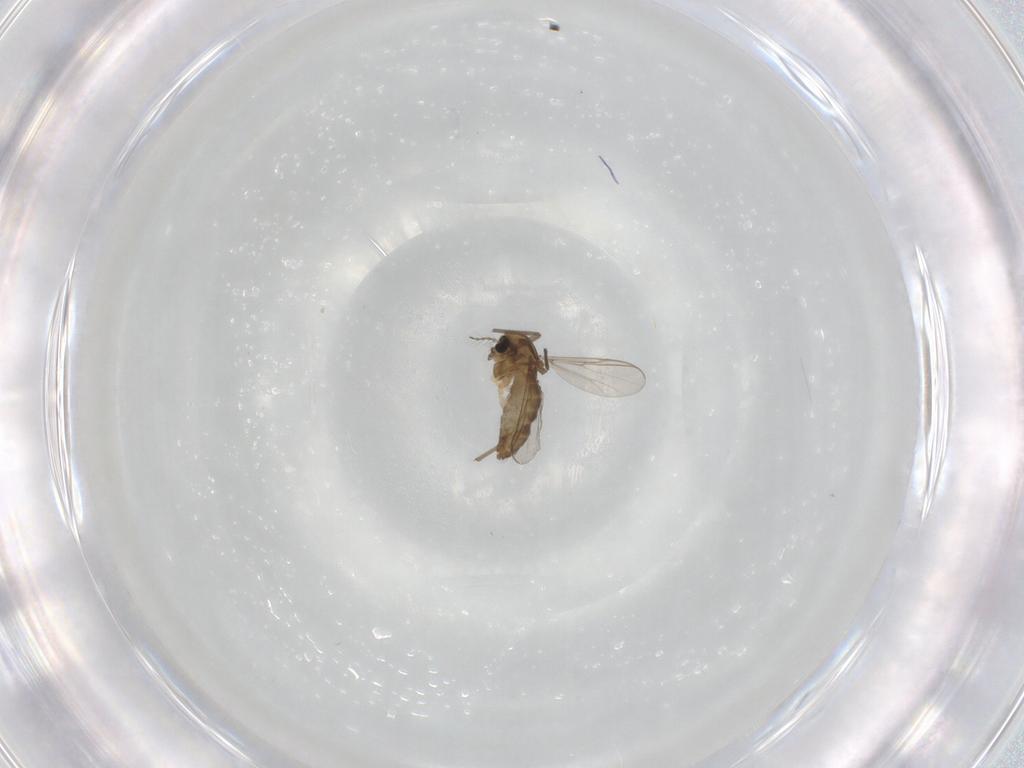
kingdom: Animalia
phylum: Arthropoda
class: Insecta
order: Diptera
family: Chironomidae
